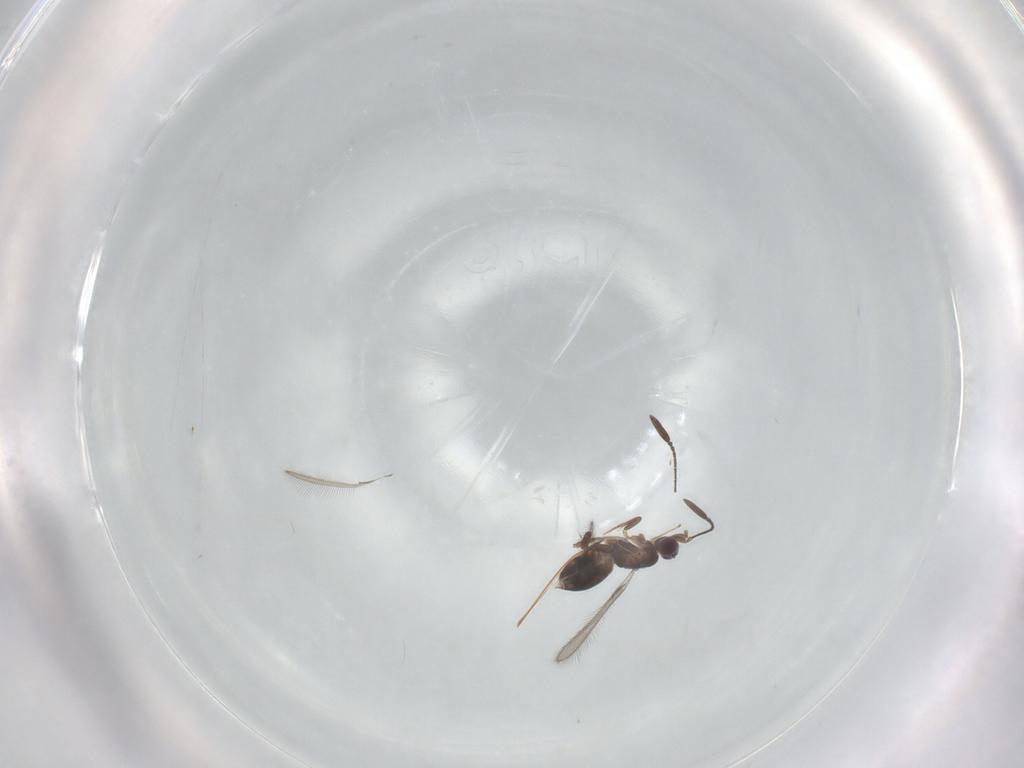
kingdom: Animalia
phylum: Arthropoda
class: Insecta
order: Hymenoptera
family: Mymaridae
